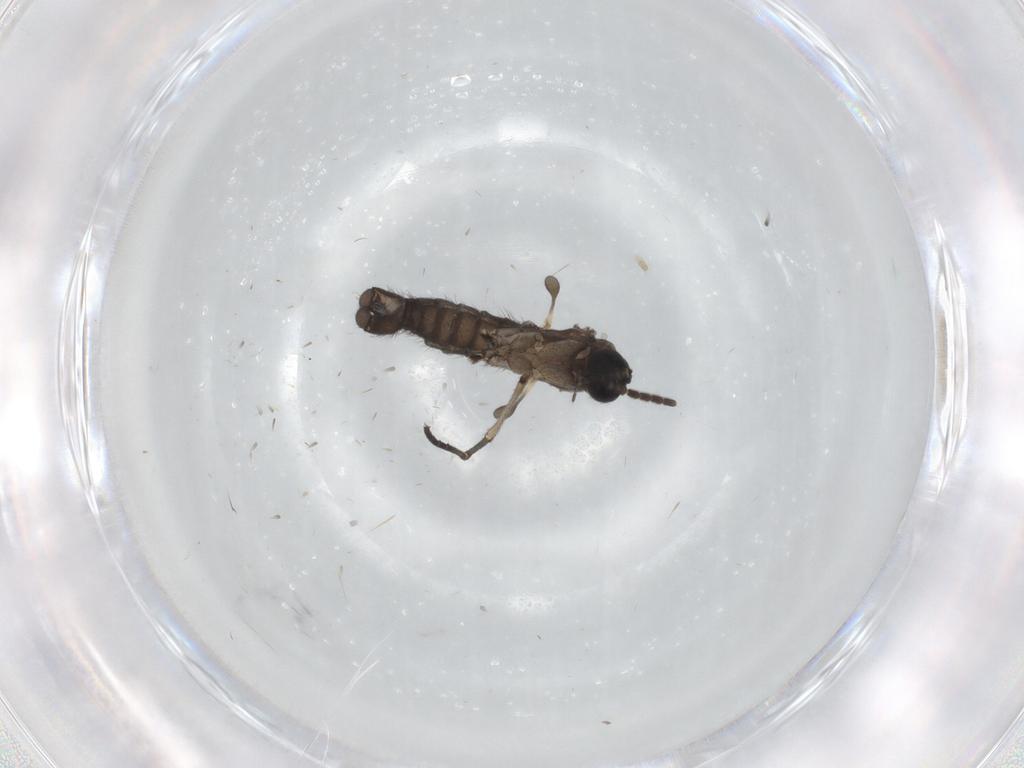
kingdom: Animalia
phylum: Arthropoda
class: Insecta
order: Diptera
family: Sciaridae
